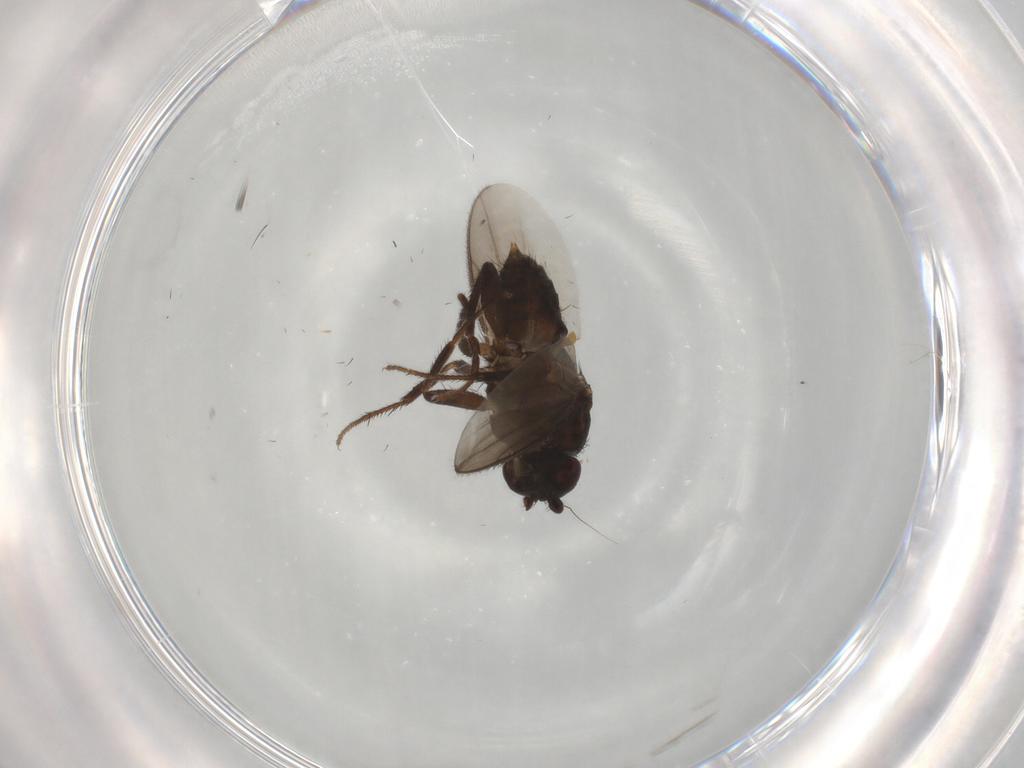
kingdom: Animalia
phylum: Arthropoda
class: Insecta
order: Diptera
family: Sphaeroceridae
